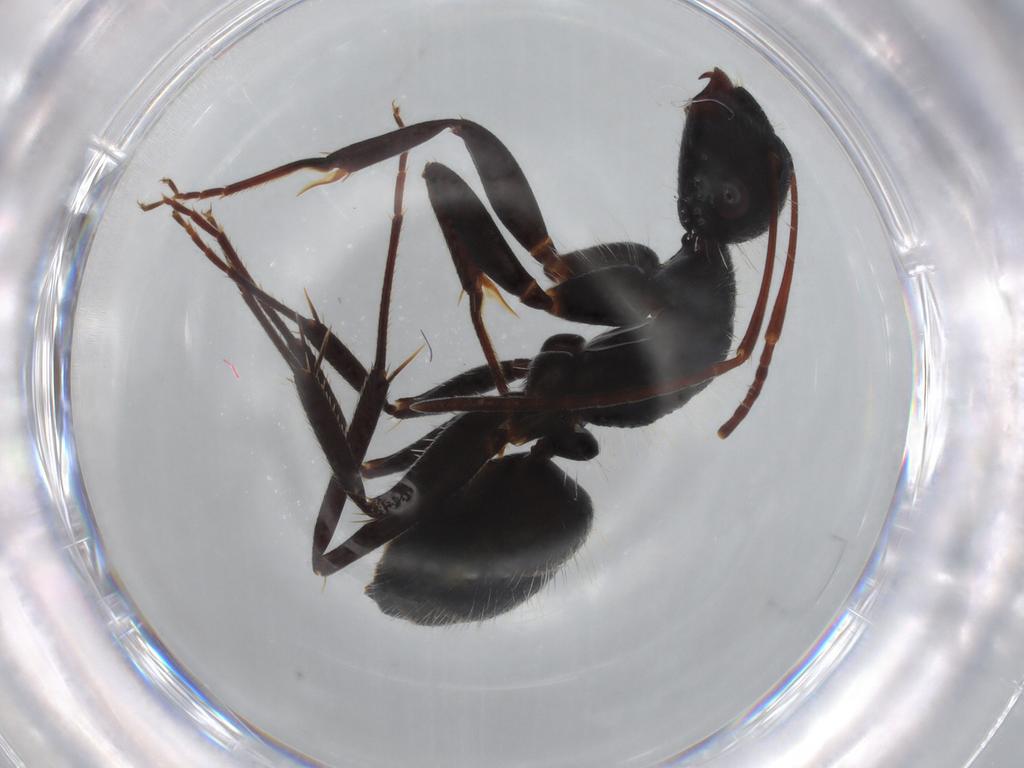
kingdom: Animalia
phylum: Arthropoda
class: Insecta
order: Hymenoptera
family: Formicidae
